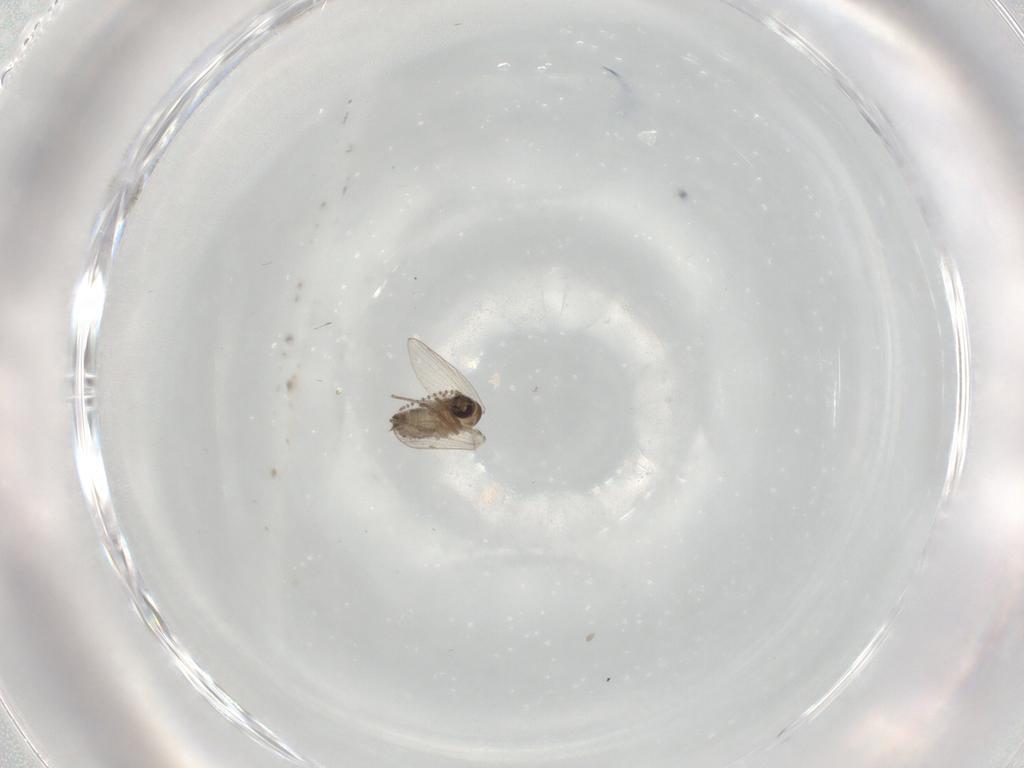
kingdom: Animalia
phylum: Arthropoda
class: Insecta
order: Diptera
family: Psychodidae
